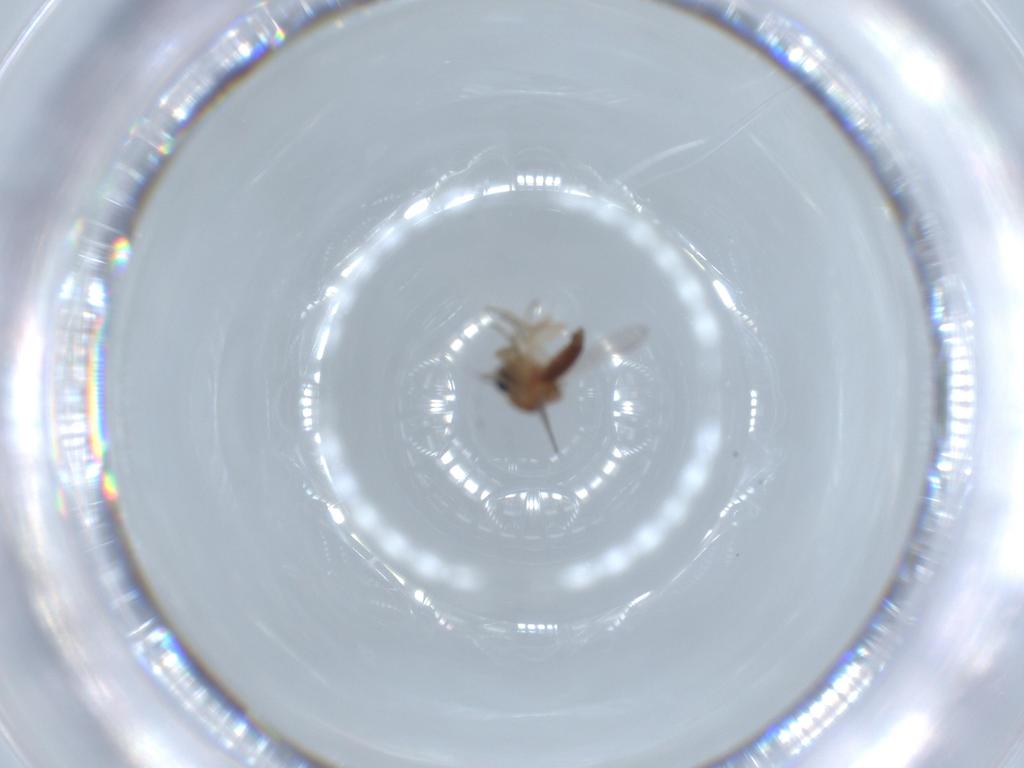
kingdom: Animalia
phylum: Arthropoda
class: Insecta
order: Diptera
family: Ceratopogonidae
